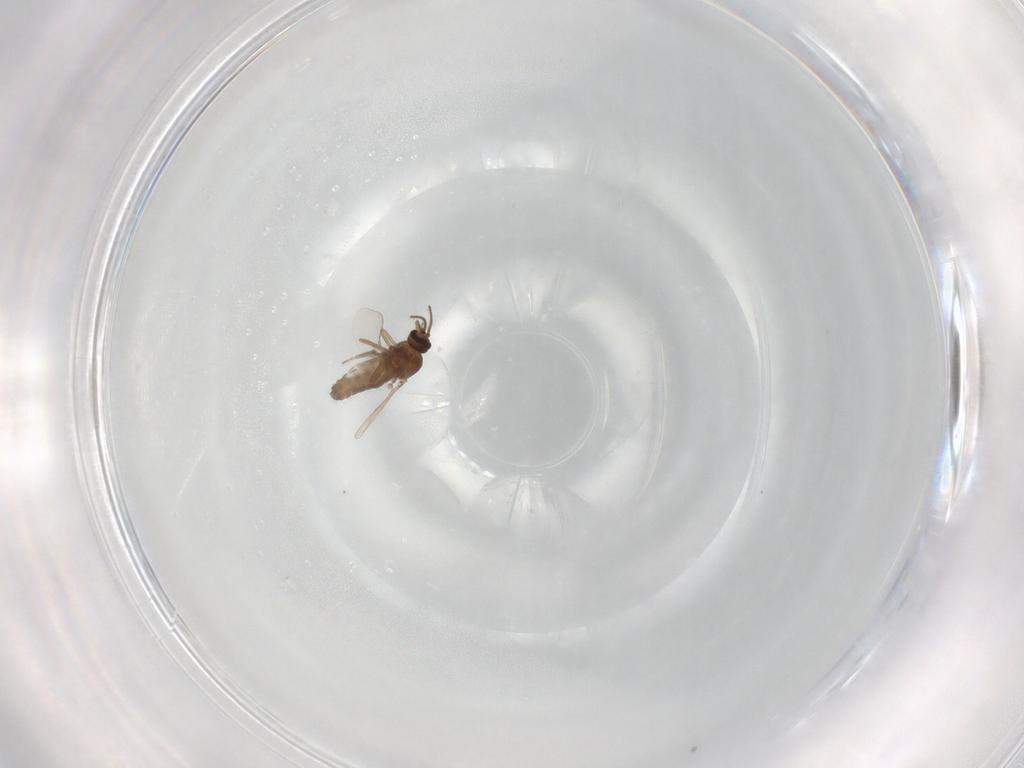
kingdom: Animalia
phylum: Arthropoda
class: Insecta
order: Diptera
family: Ceratopogonidae
